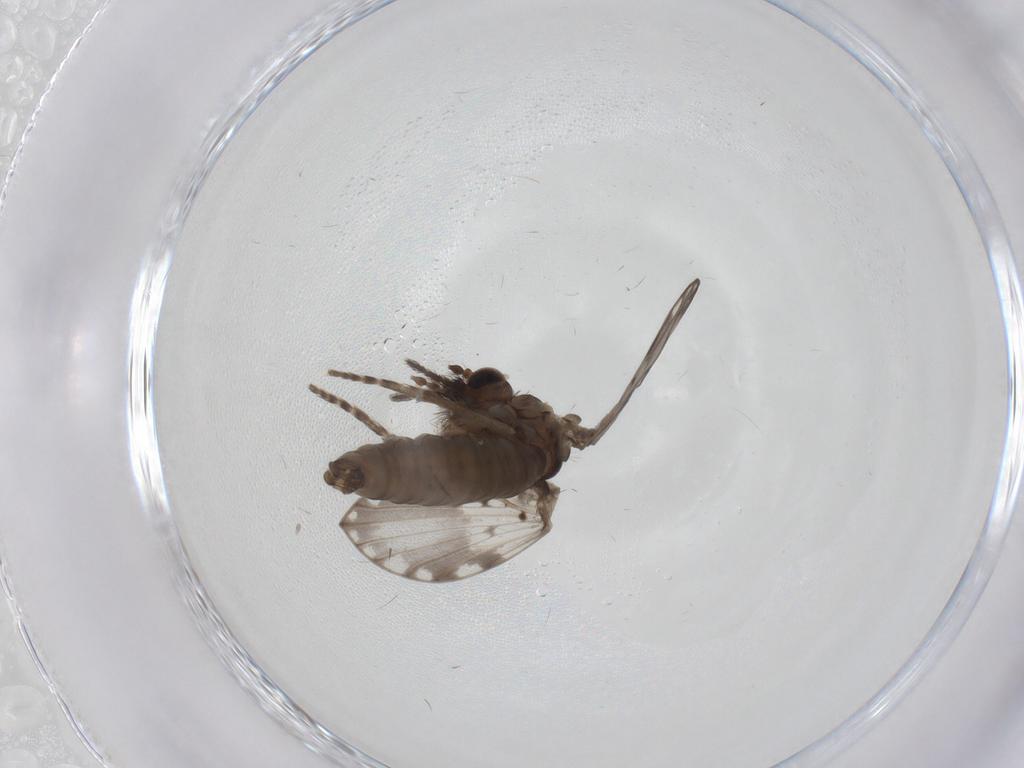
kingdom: Animalia
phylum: Arthropoda
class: Insecta
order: Diptera
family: Psychodidae
